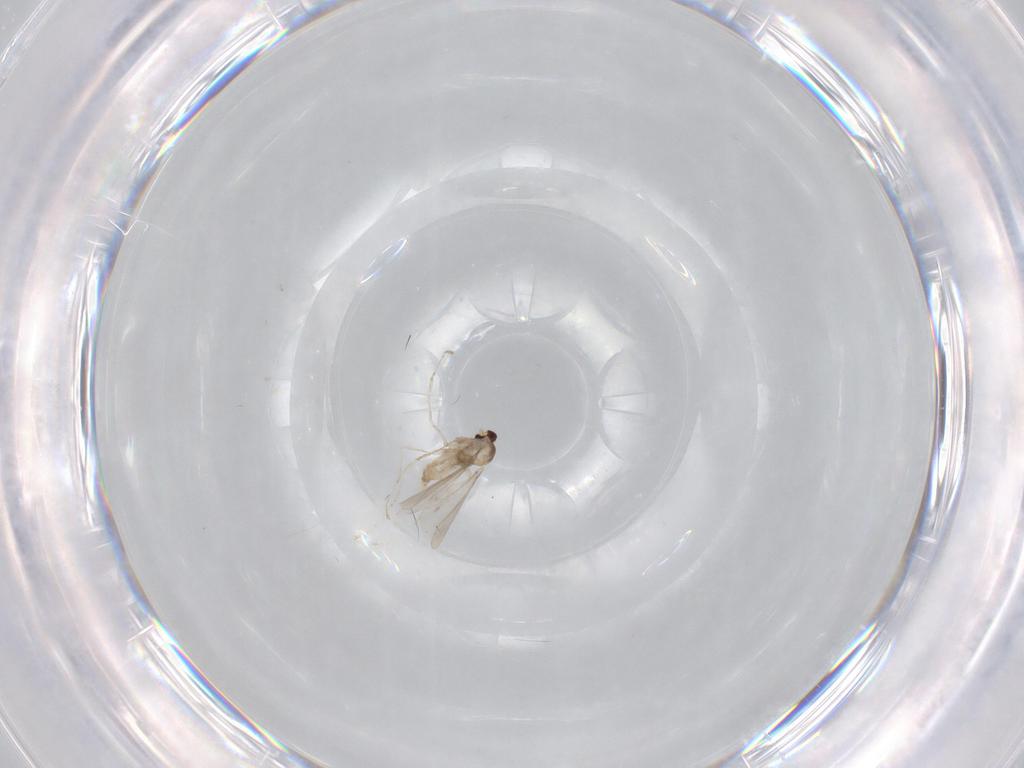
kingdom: Animalia
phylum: Arthropoda
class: Insecta
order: Diptera
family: Cecidomyiidae
